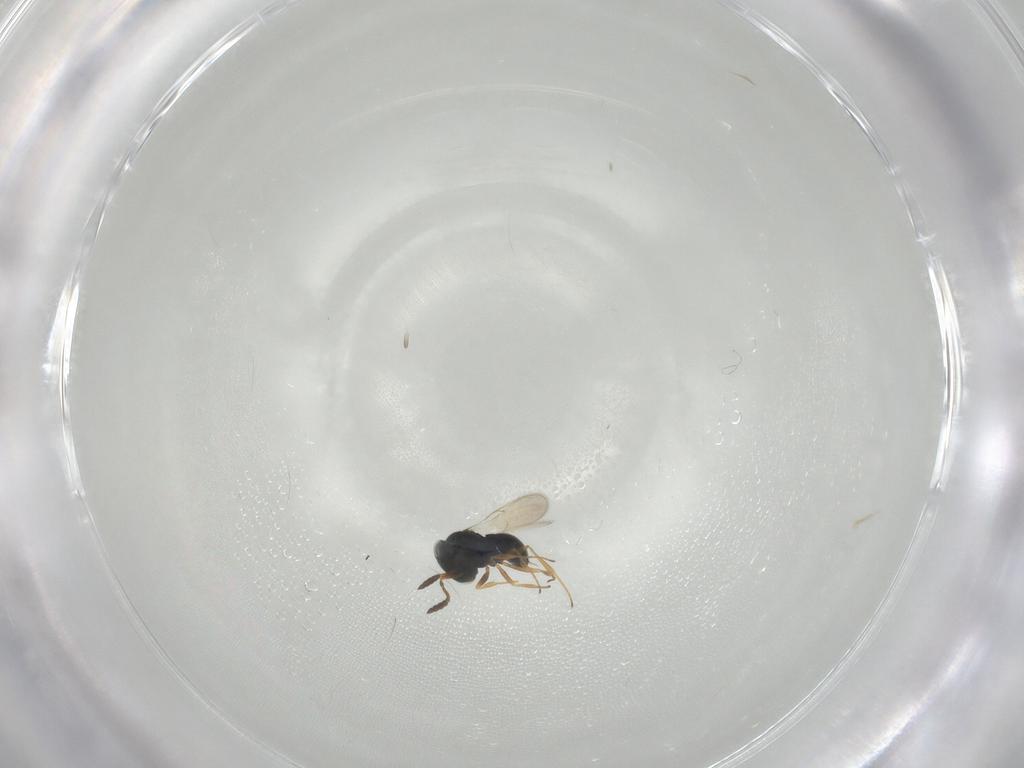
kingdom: Animalia
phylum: Arthropoda
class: Insecta
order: Hymenoptera
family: Scelionidae
